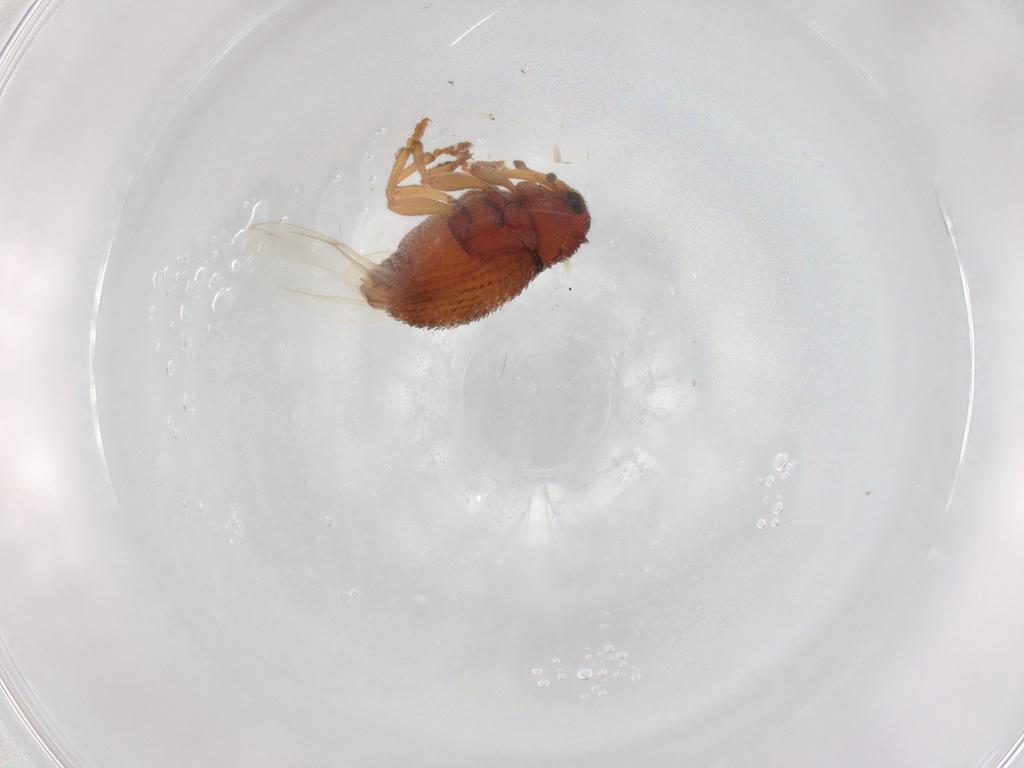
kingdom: Animalia
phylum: Arthropoda
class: Insecta
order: Coleoptera
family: Curculionidae
